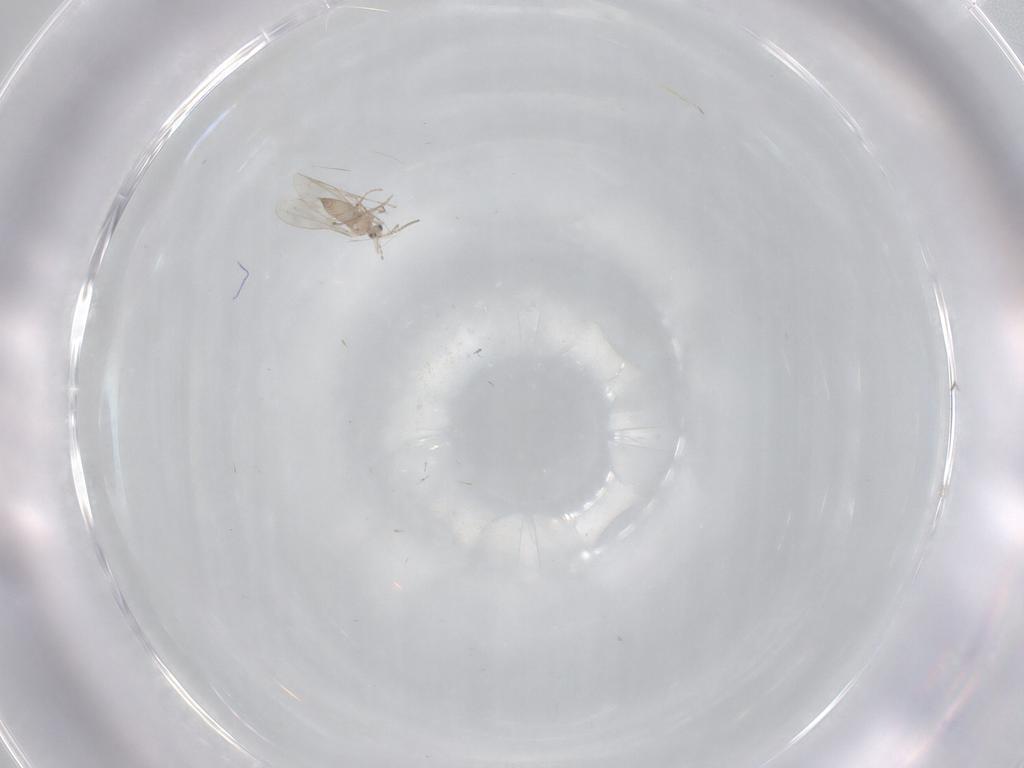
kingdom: Animalia
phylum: Arthropoda
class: Insecta
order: Diptera
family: Cecidomyiidae
